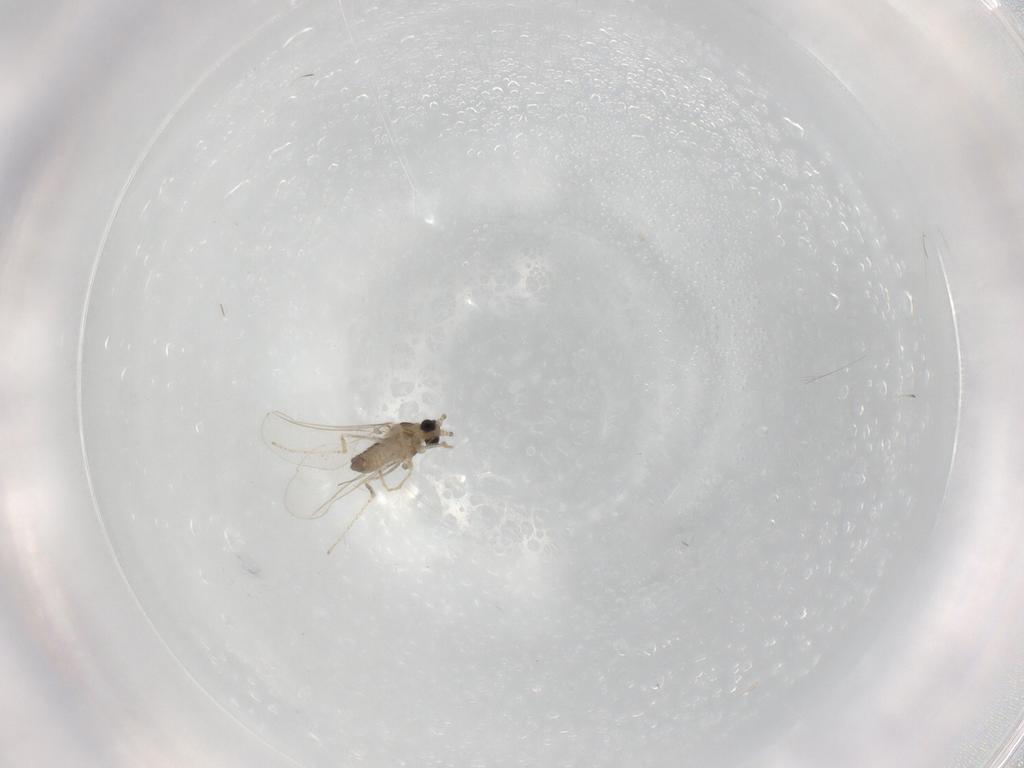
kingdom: Animalia
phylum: Arthropoda
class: Insecta
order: Diptera
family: Cecidomyiidae
